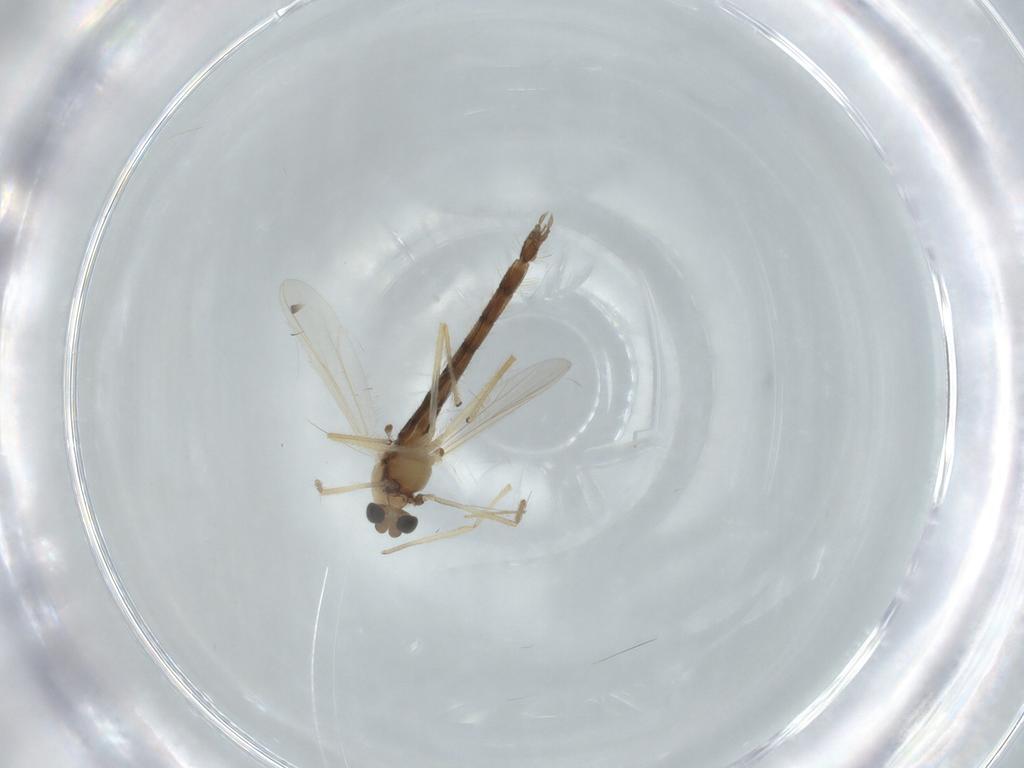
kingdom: Animalia
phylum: Arthropoda
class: Insecta
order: Diptera
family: Chironomidae
